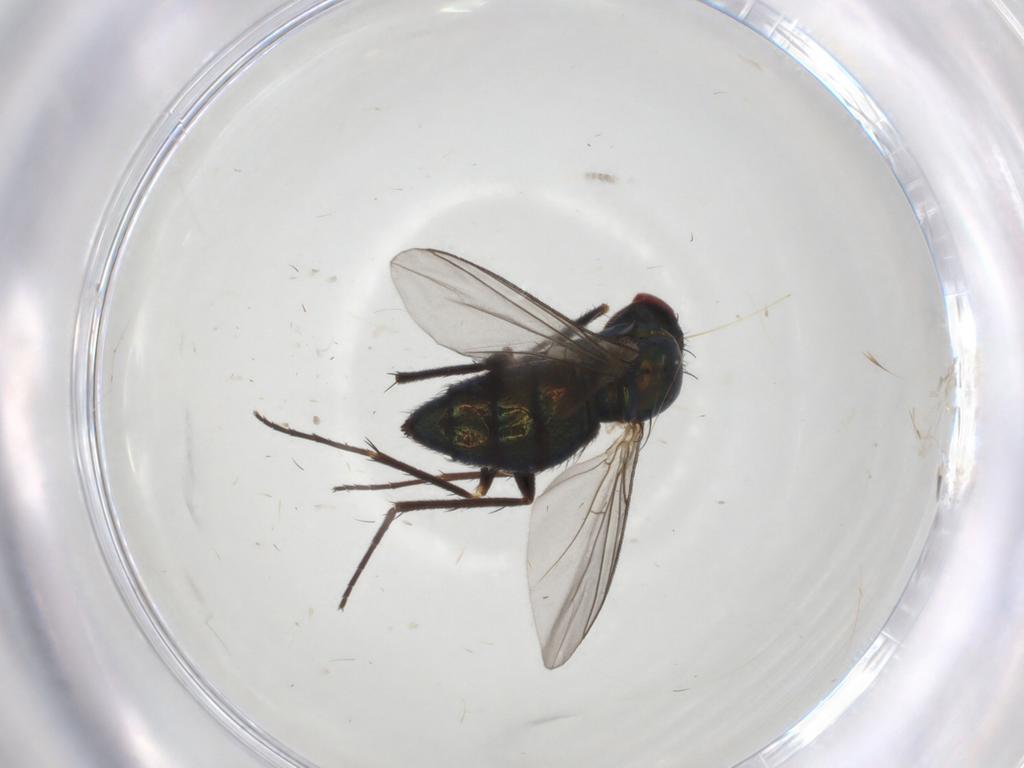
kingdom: Animalia
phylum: Arthropoda
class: Insecta
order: Diptera
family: Dolichopodidae
